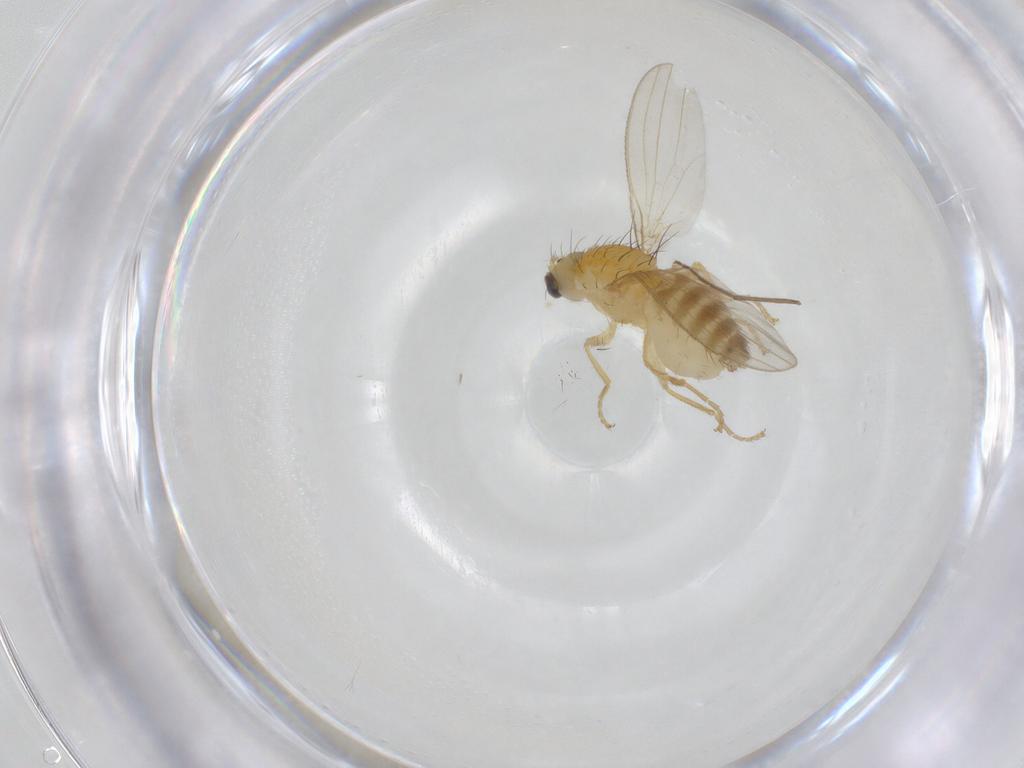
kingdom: Animalia
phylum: Arthropoda
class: Insecta
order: Diptera
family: Chyromyidae
